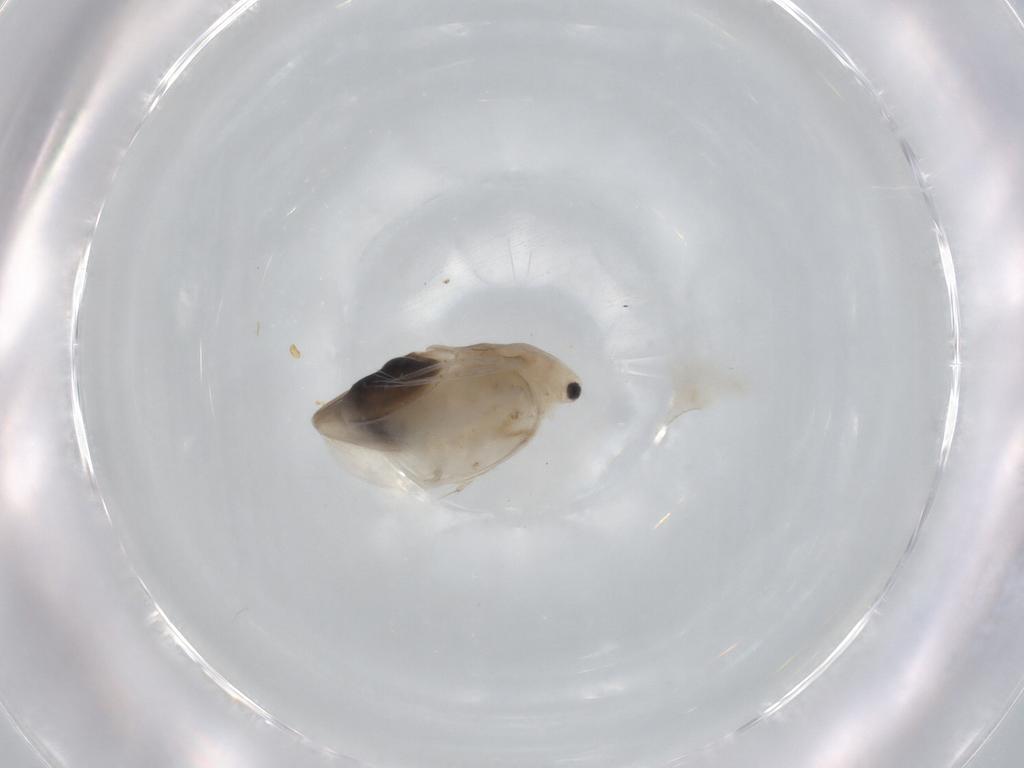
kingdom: Animalia
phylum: Arthropoda
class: Branchiopoda
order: Diplostraca
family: Daphniidae
